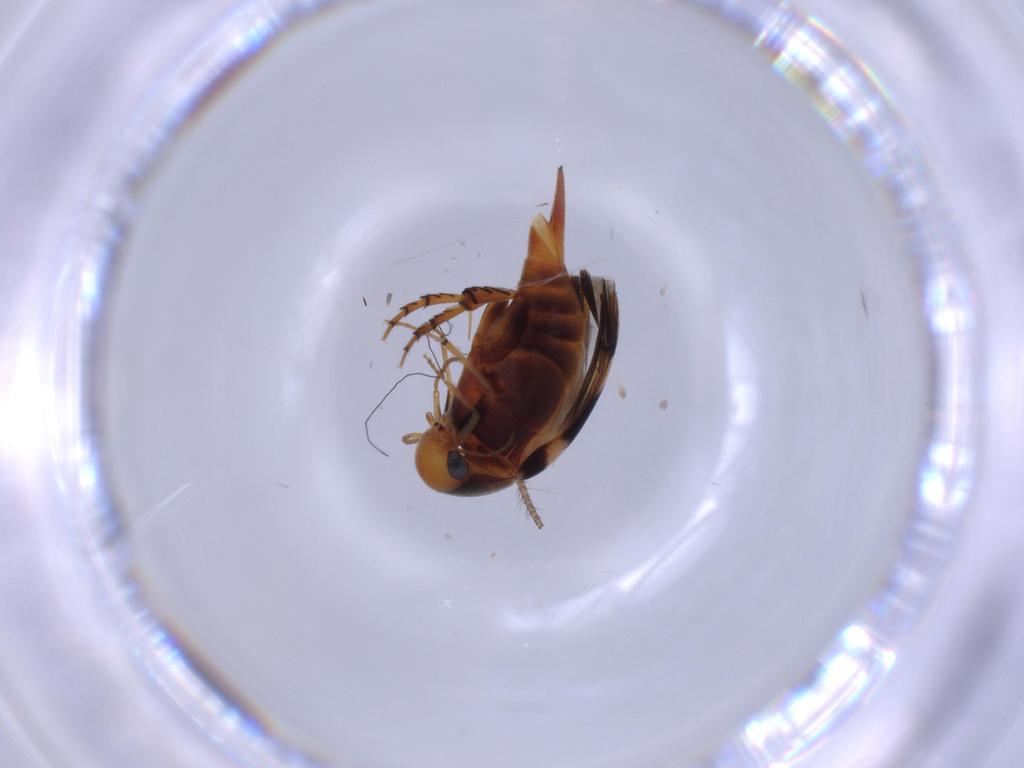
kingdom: Animalia
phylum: Arthropoda
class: Insecta
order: Coleoptera
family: Mordellidae
